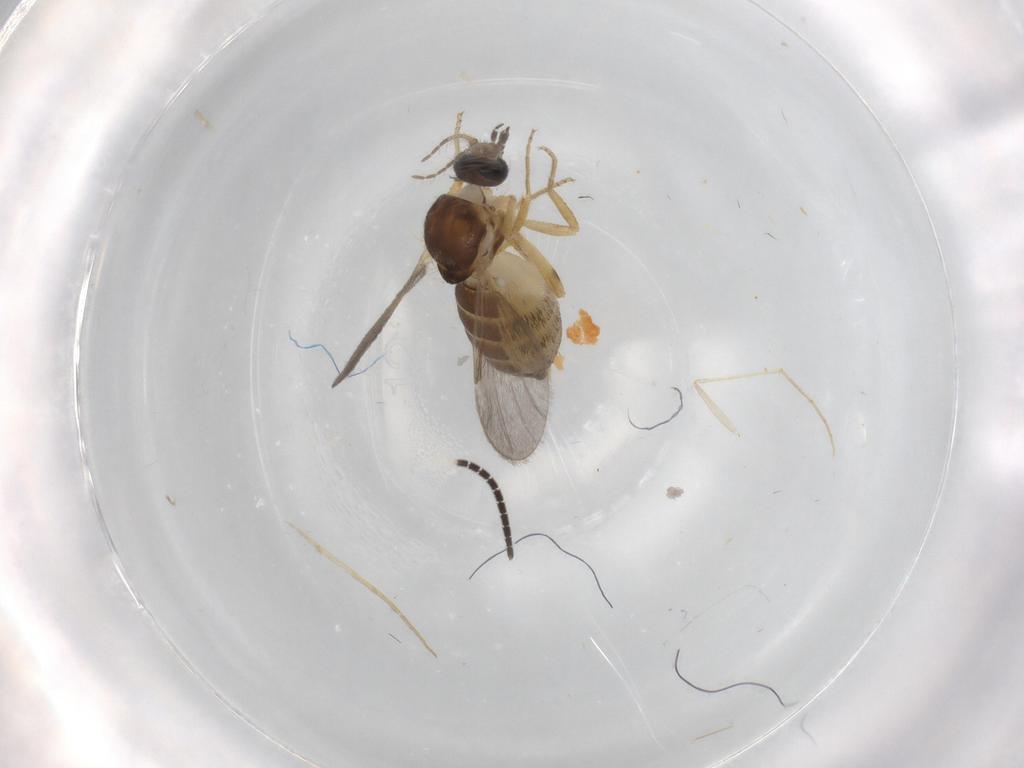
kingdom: Animalia
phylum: Arthropoda
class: Insecta
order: Diptera
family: Ceratopogonidae
